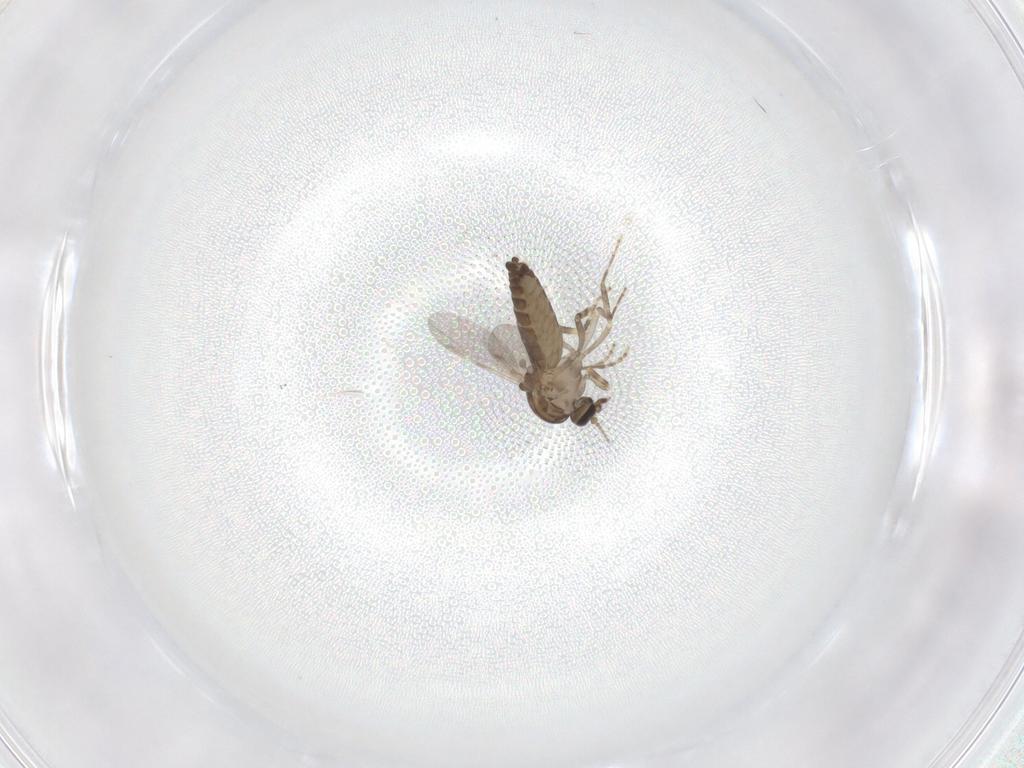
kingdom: Animalia
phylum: Arthropoda
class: Insecta
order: Diptera
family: Ceratopogonidae
